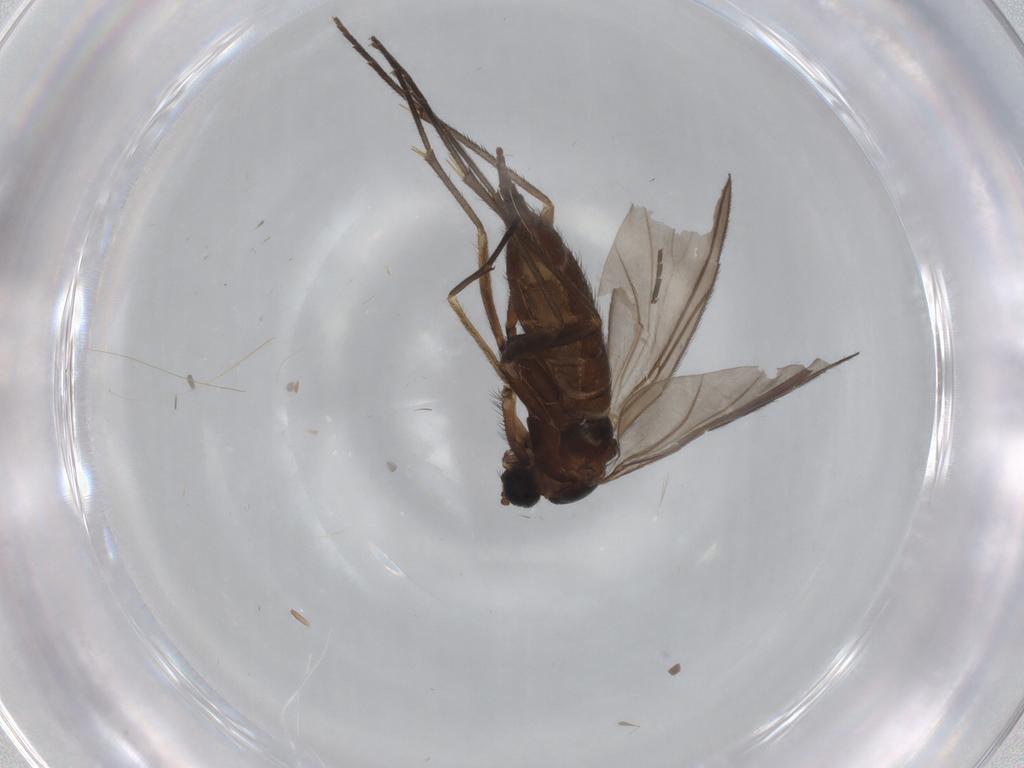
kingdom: Animalia
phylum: Arthropoda
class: Insecta
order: Diptera
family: Sciaridae
